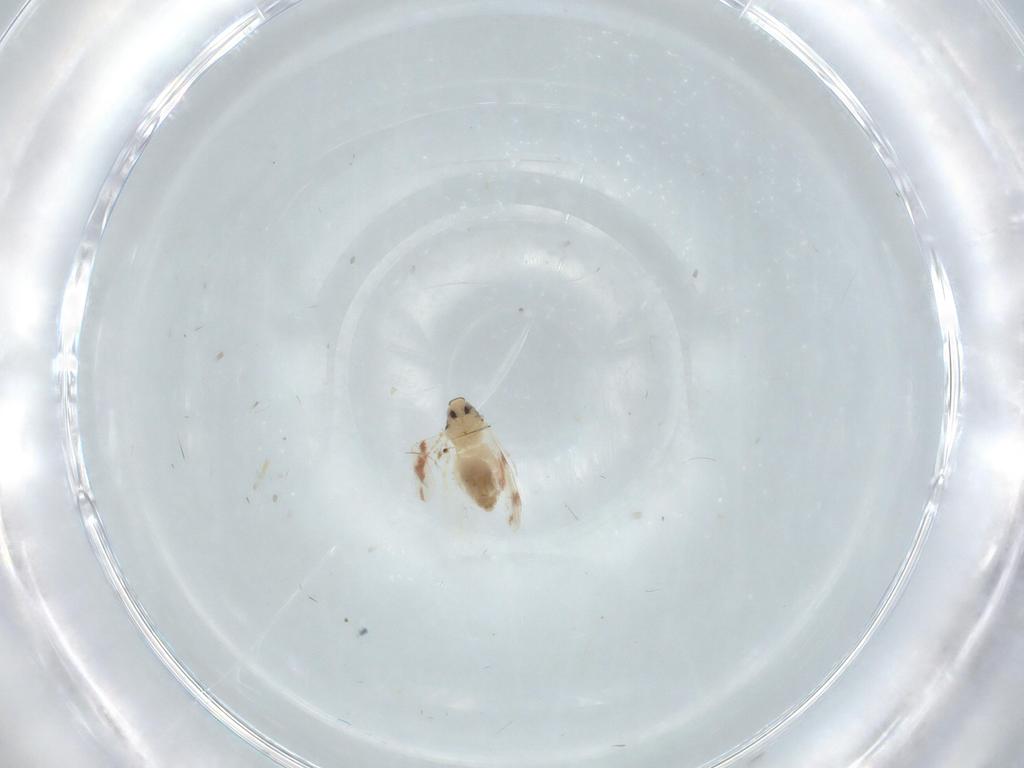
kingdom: Animalia
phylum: Arthropoda
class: Insecta
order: Hemiptera
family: Aleyrodidae
